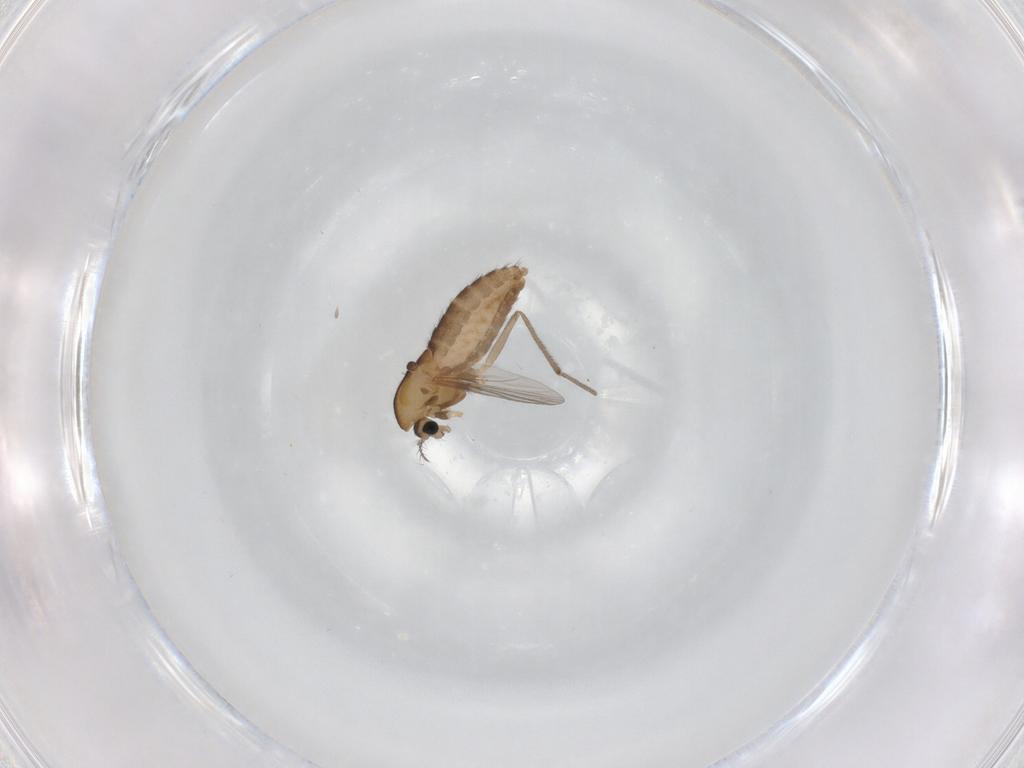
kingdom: Animalia
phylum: Arthropoda
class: Insecta
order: Diptera
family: Chironomidae
